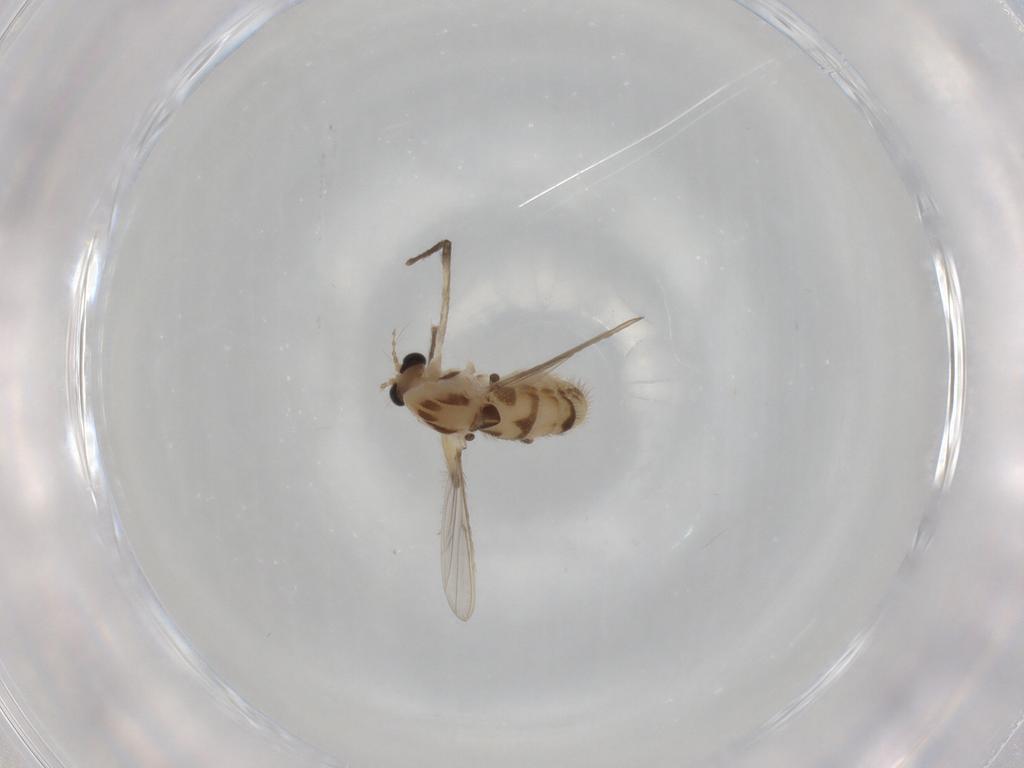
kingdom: Animalia
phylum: Arthropoda
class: Insecta
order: Diptera
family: Chironomidae
